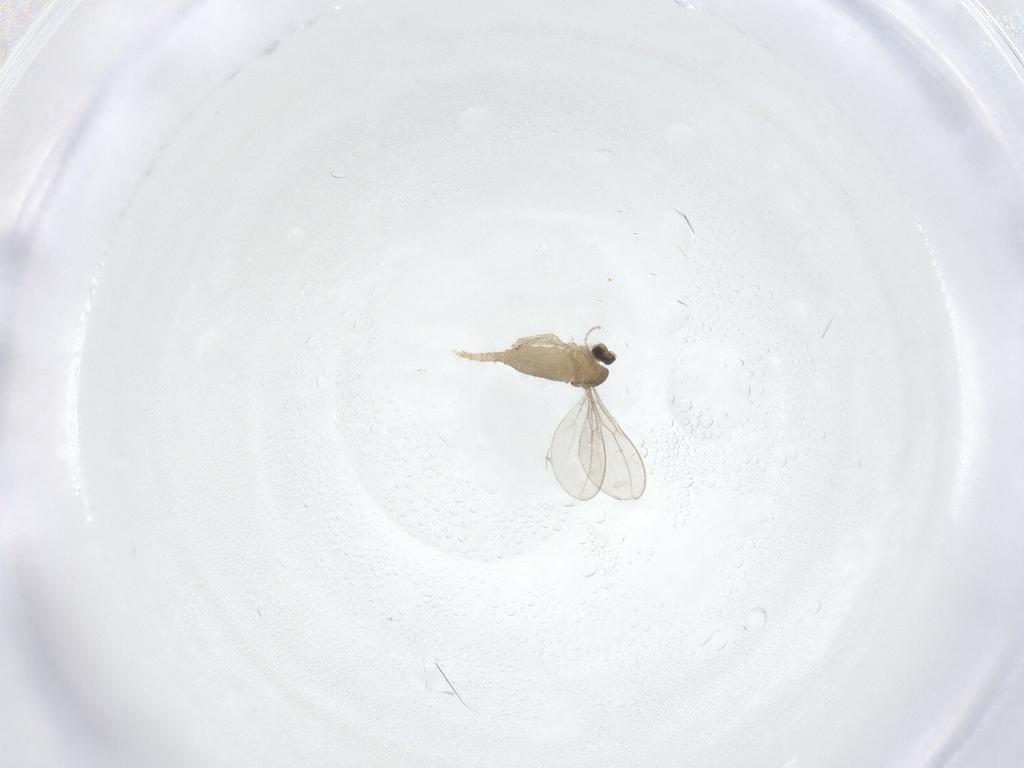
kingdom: Animalia
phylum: Arthropoda
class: Insecta
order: Diptera
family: Cecidomyiidae
